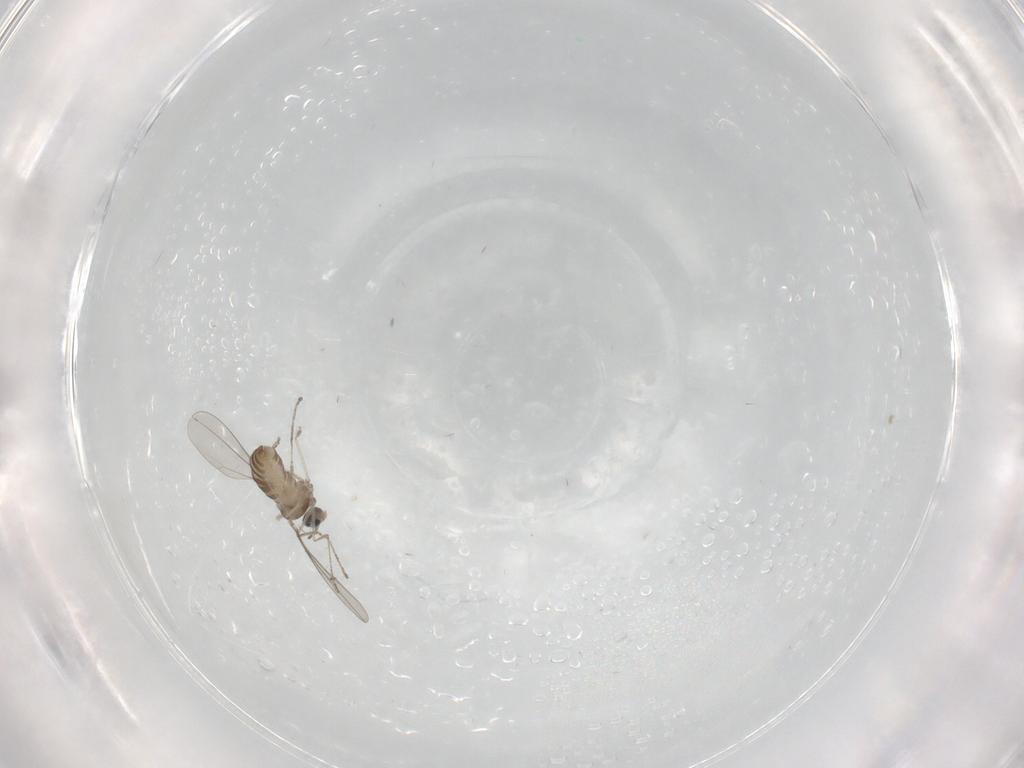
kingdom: Animalia
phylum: Arthropoda
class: Insecta
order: Diptera
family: Cecidomyiidae
